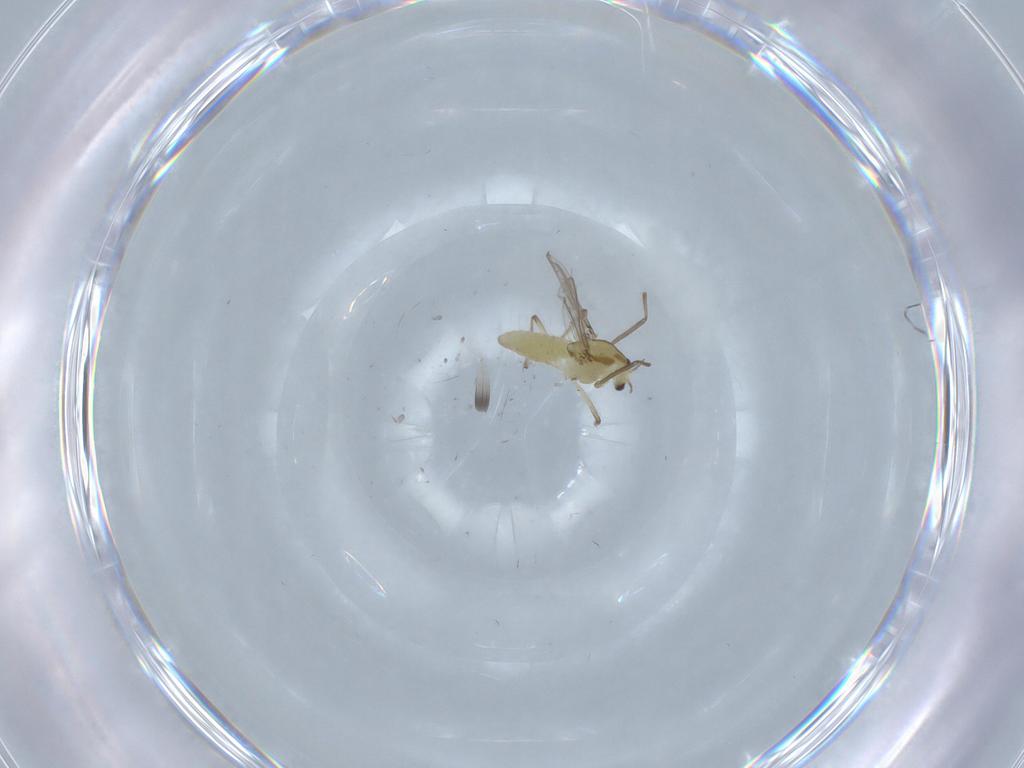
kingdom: Animalia
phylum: Arthropoda
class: Insecta
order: Diptera
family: Chironomidae
